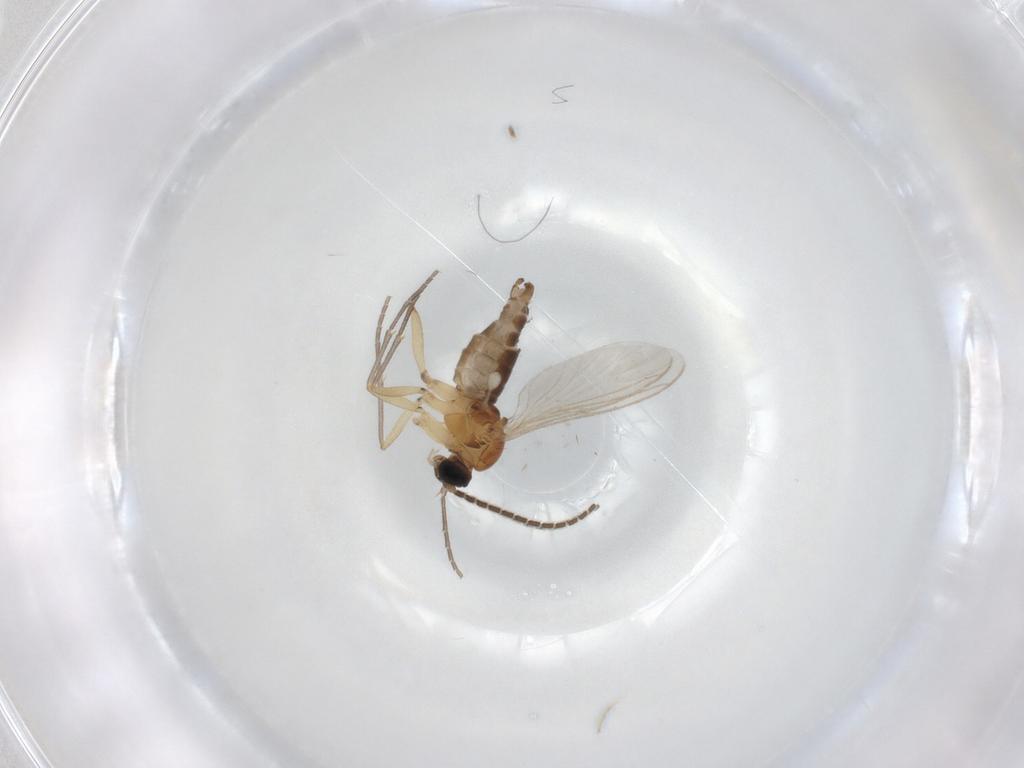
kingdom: Animalia
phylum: Arthropoda
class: Insecta
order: Diptera
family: Sciaridae
